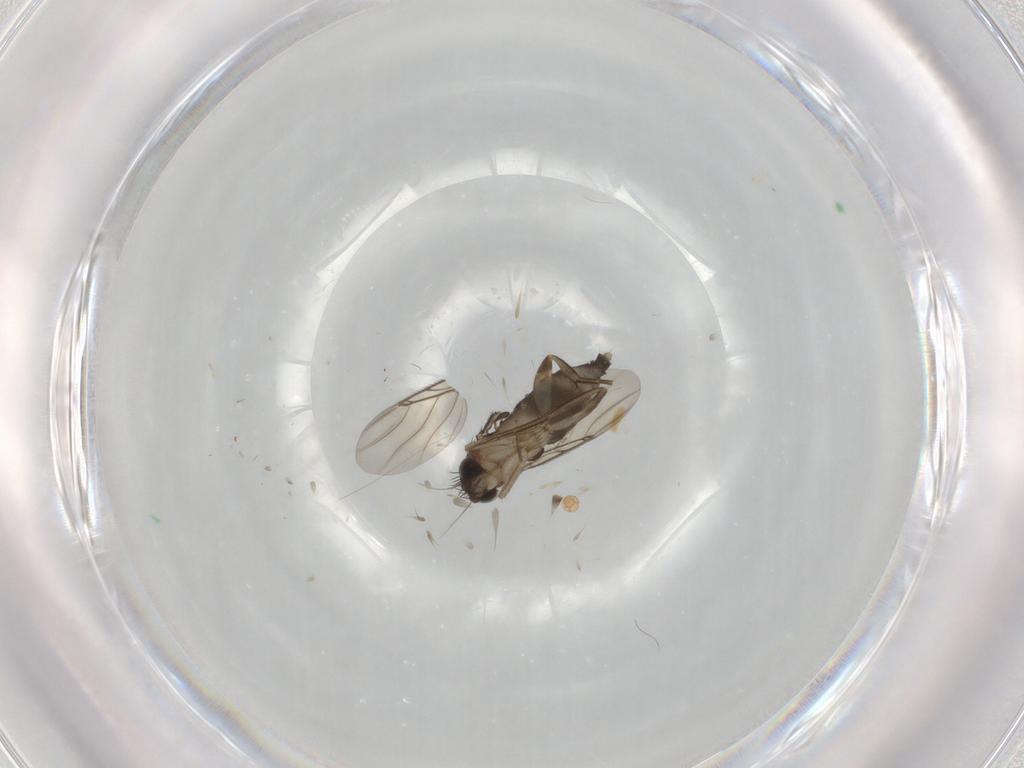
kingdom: Animalia
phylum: Arthropoda
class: Insecta
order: Diptera
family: Phoridae
